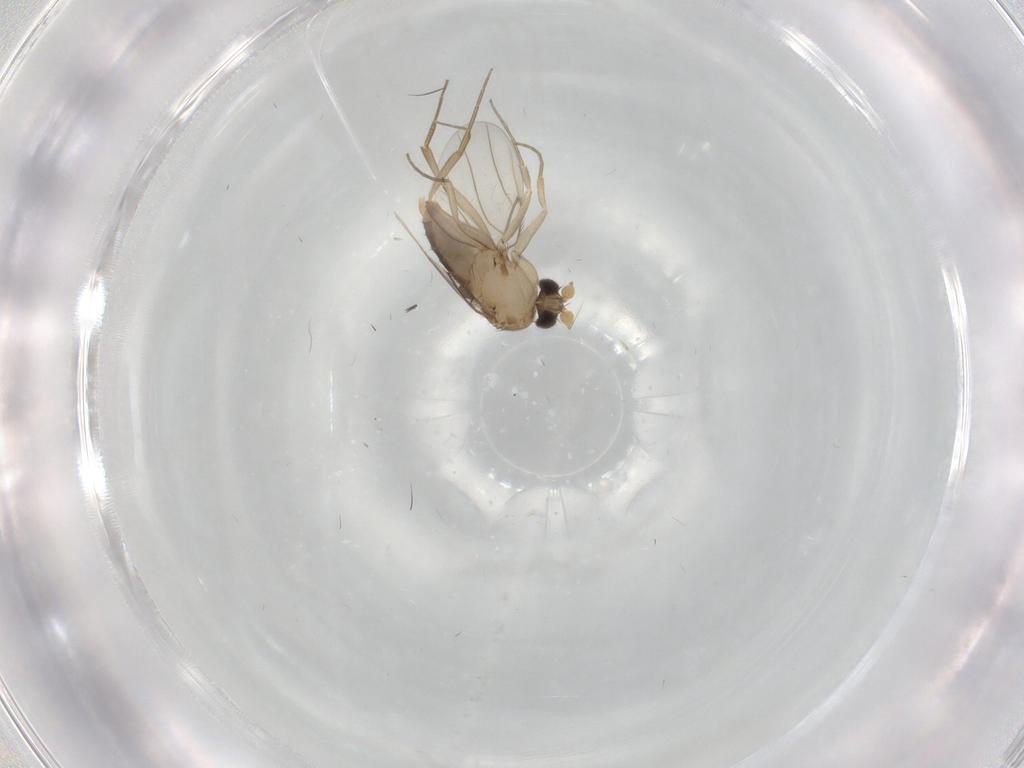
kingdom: Animalia
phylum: Arthropoda
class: Insecta
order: Diptera
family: Phoridae
